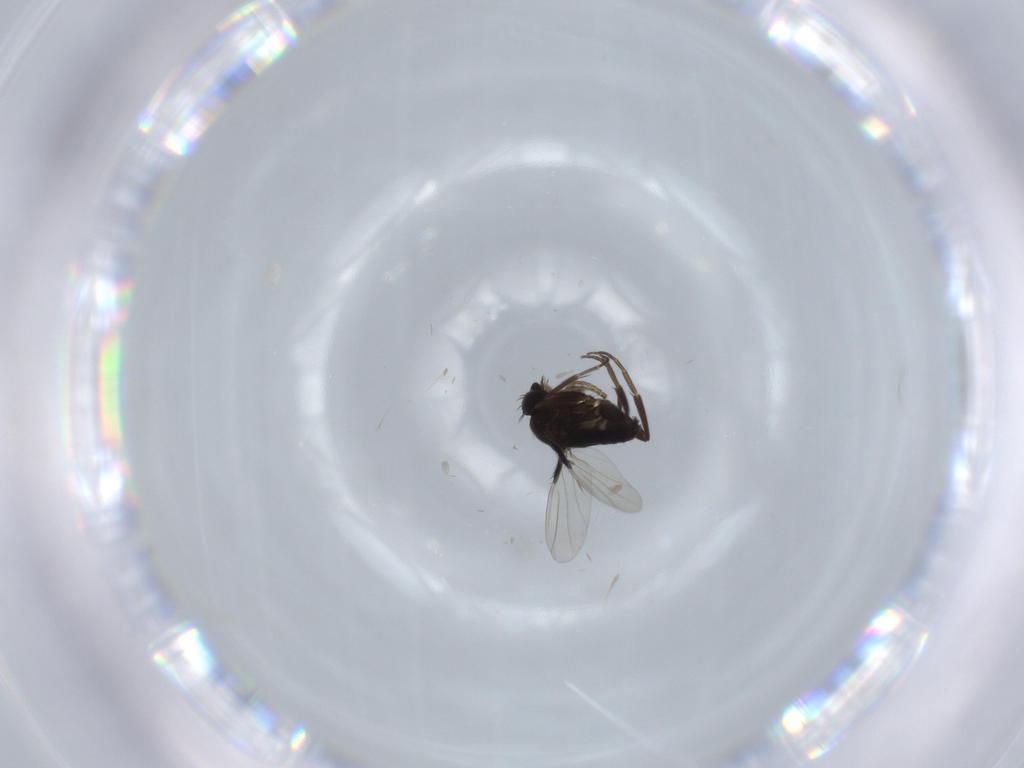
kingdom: Animalia
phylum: Arthropoda
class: Insecta
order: Diptera
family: Phoridae
